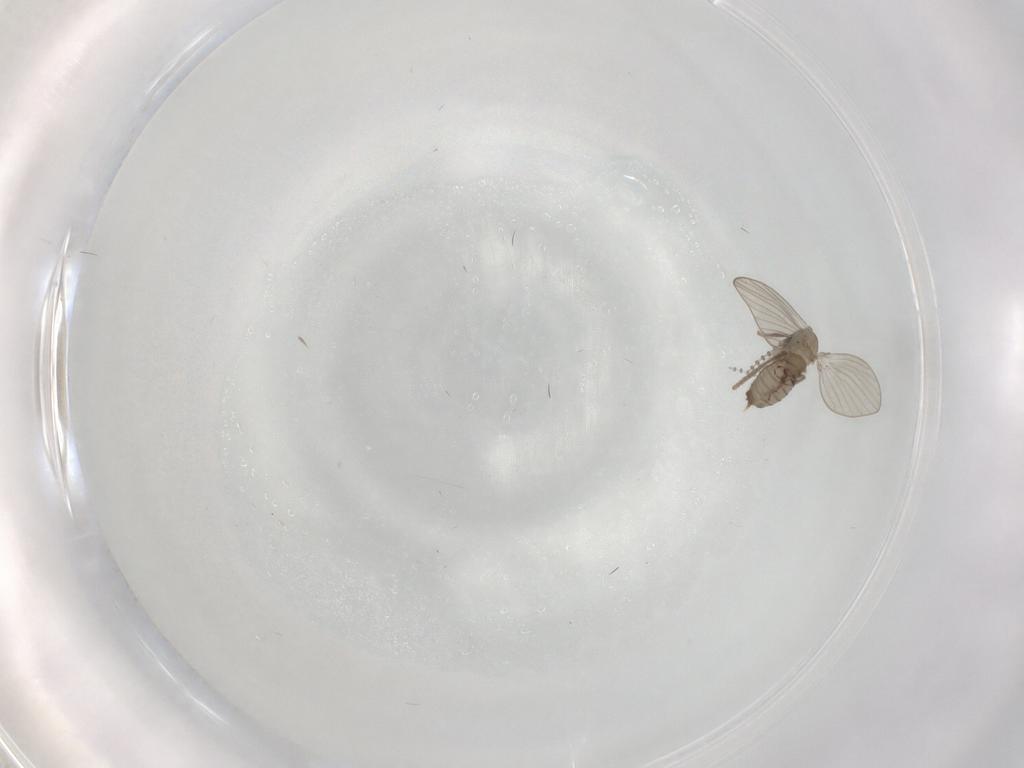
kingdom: Animalia
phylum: Arthropoda
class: Insecta
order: Diptera
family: Psychodidae
